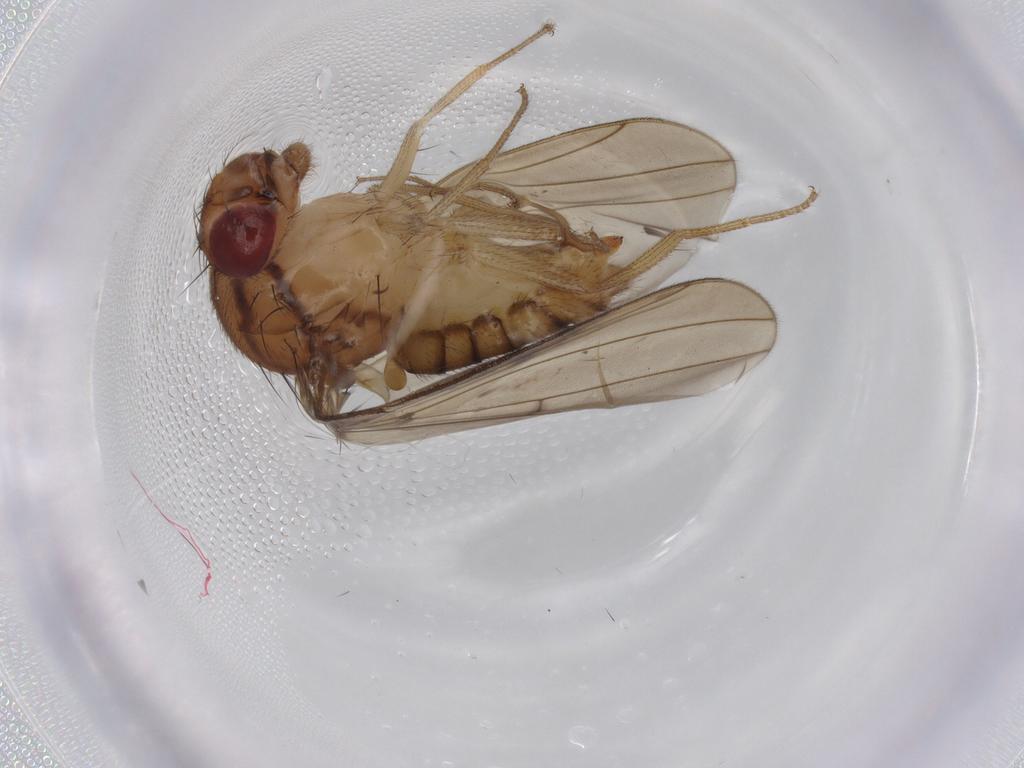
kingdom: Animalia
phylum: Arthropoda
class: Insecta
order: Diptera
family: Drosophilidae
